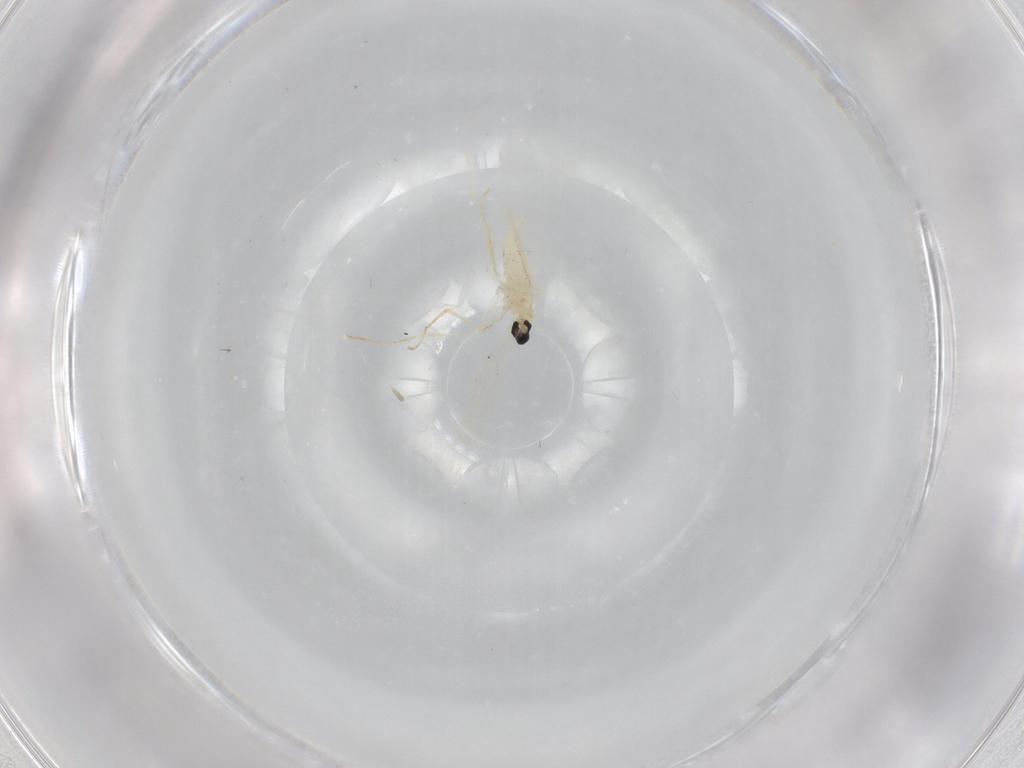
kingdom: Animalia
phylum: Arthropoda
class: Insecta
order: Diptera
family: Cecidomyiidae
